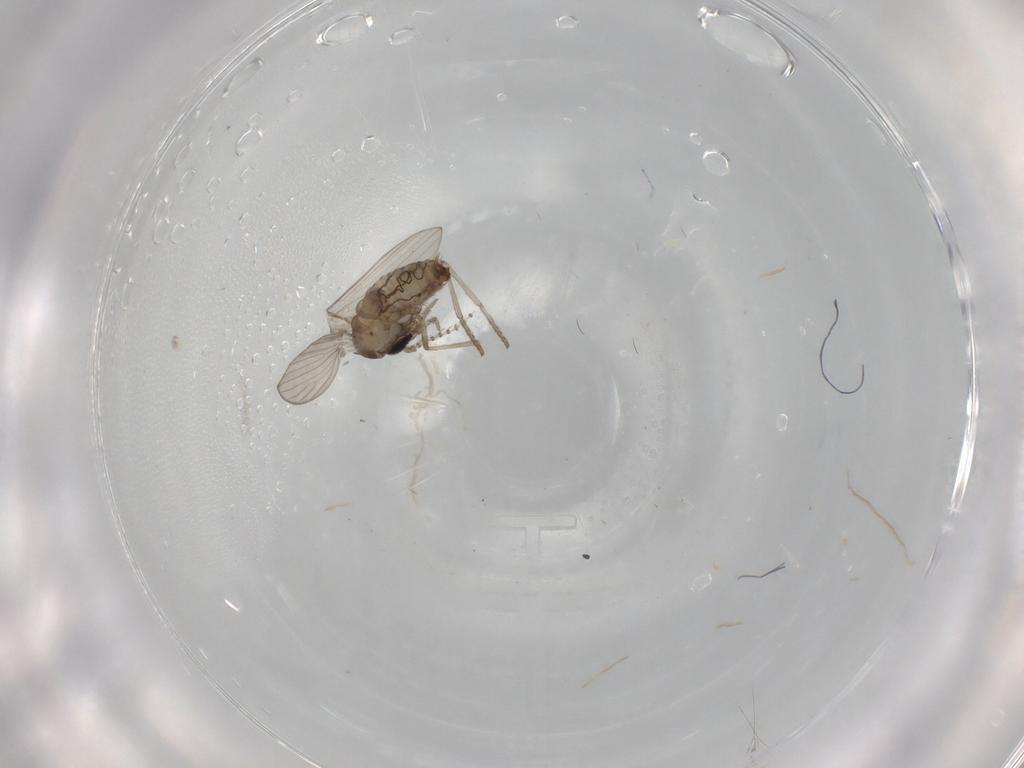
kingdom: Animalia
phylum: Arthropoda
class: Insecta
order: Diptera
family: Psychodidae
